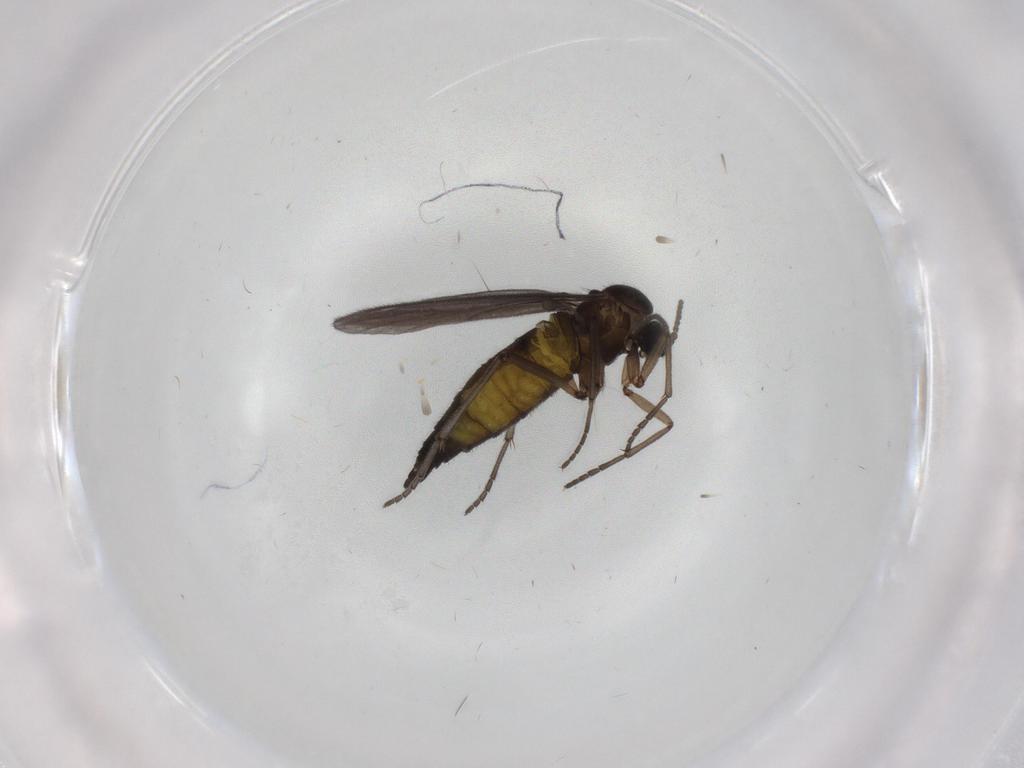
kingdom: Animalia
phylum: Arthropoda
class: Insecta
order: Diptera
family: Sciaridae
